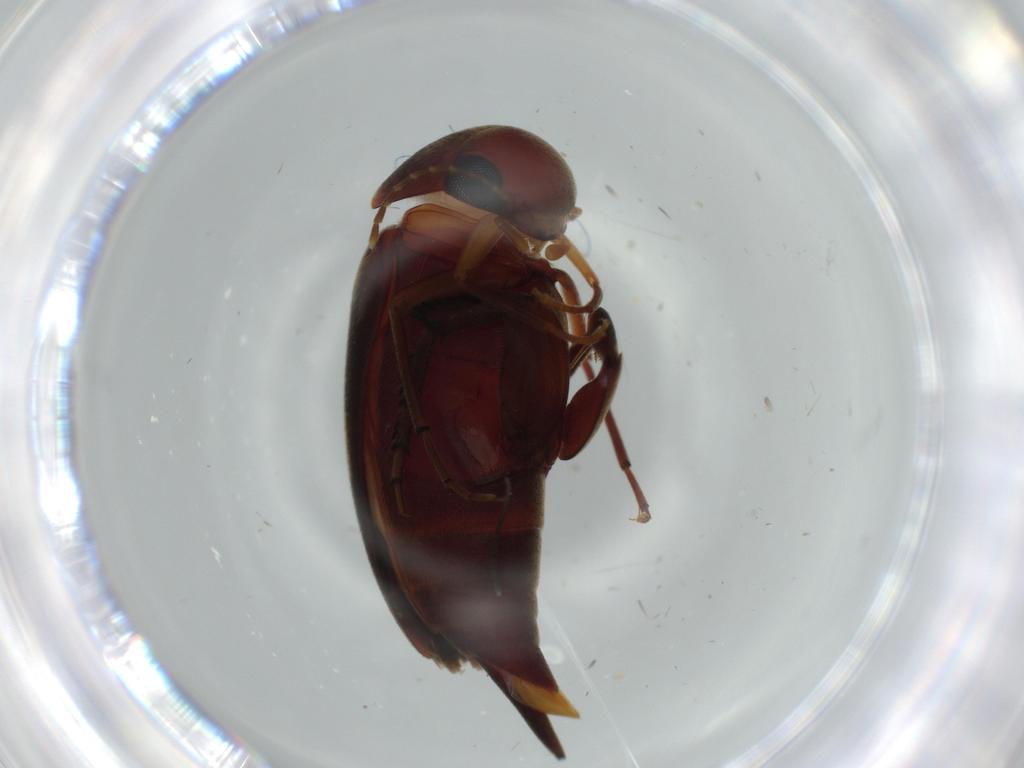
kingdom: Animalia
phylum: Arthropoda
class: Insecta
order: Coleoptera
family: Mordellidae
